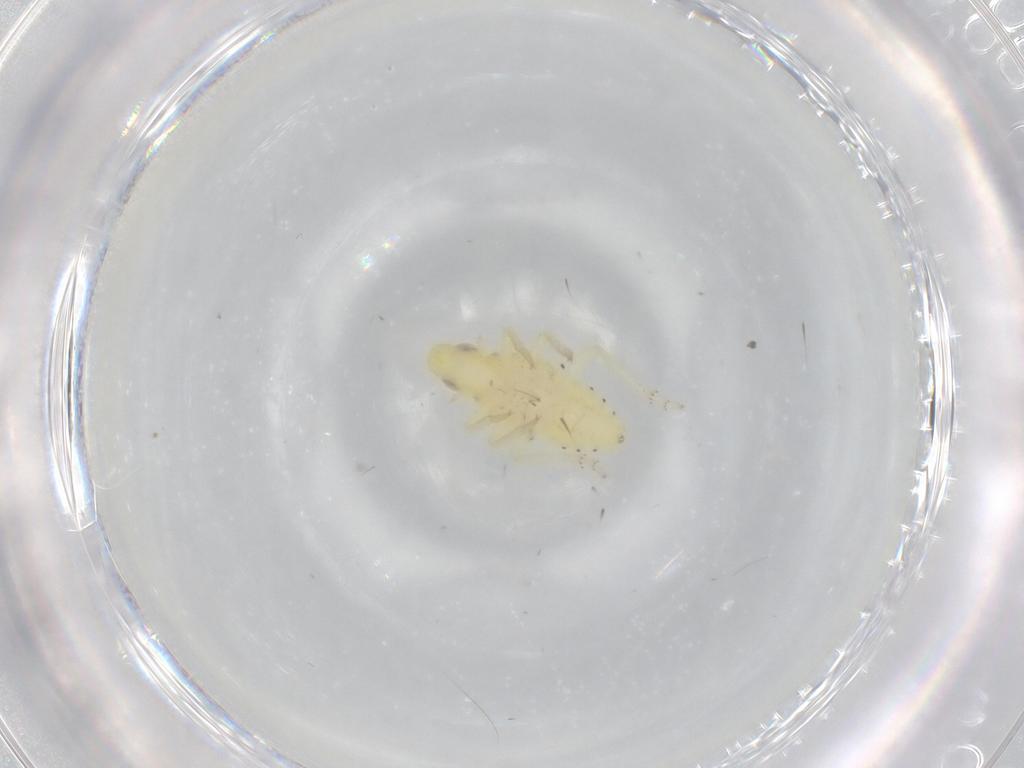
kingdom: Animalia
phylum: Arthropoda
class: Insecta
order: Hemiptera
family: Tropiduchidae
